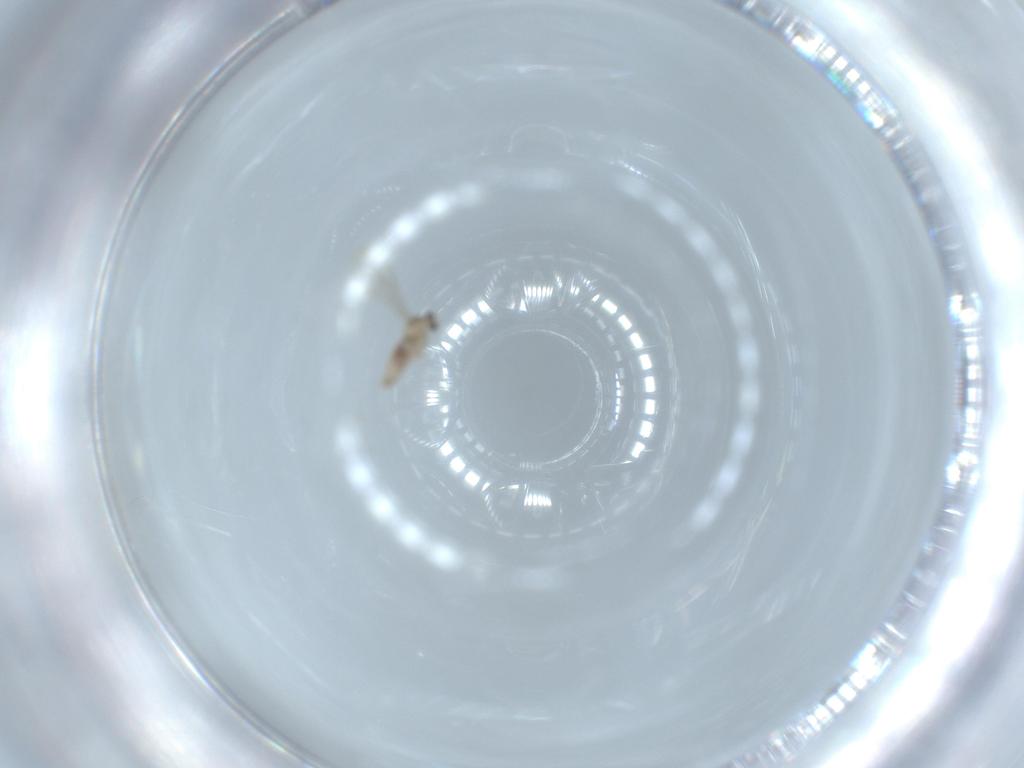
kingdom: Animalia
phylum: Arthropoda
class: Insecta
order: Diptera
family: Cecidomyiidae
